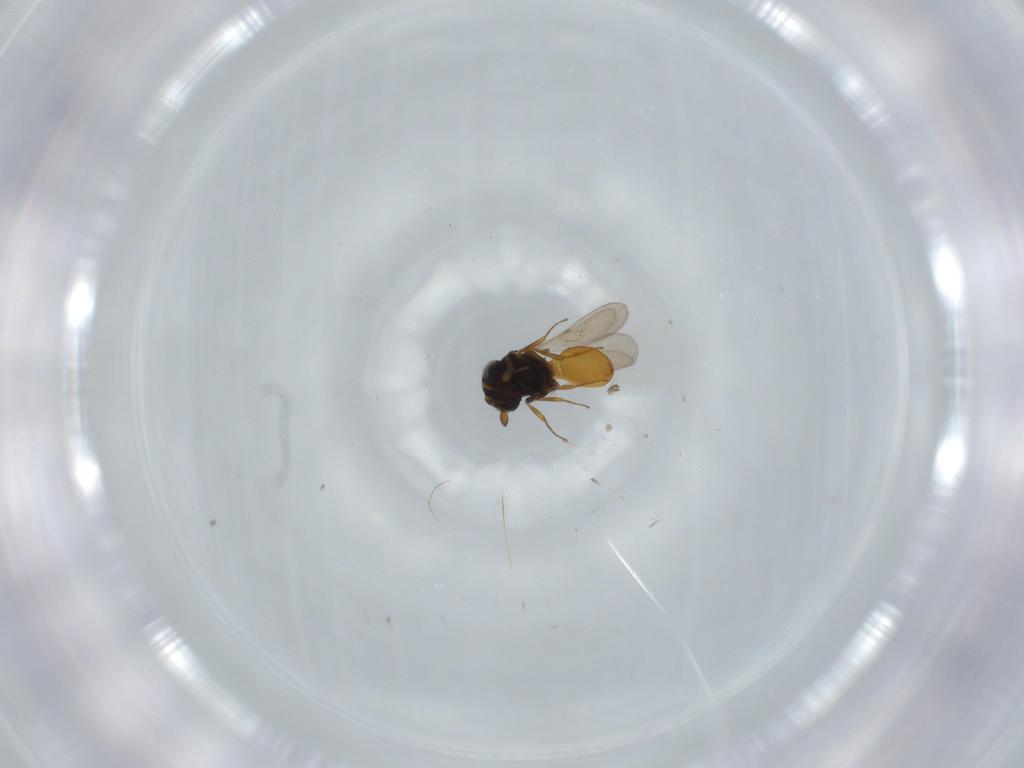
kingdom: Animalia
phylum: Arthropoda
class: Insecta
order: Hymenoptera
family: Scelionidae
